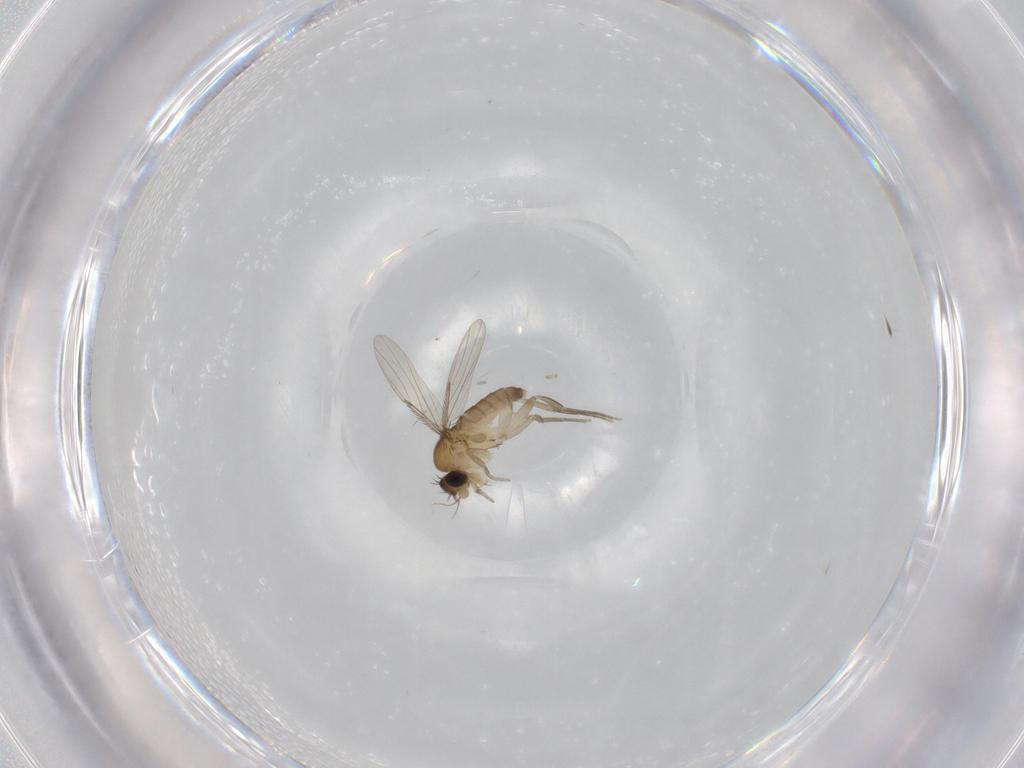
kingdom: Animalia
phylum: Arthropoda
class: Insecta
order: Diptera
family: Phoridae
